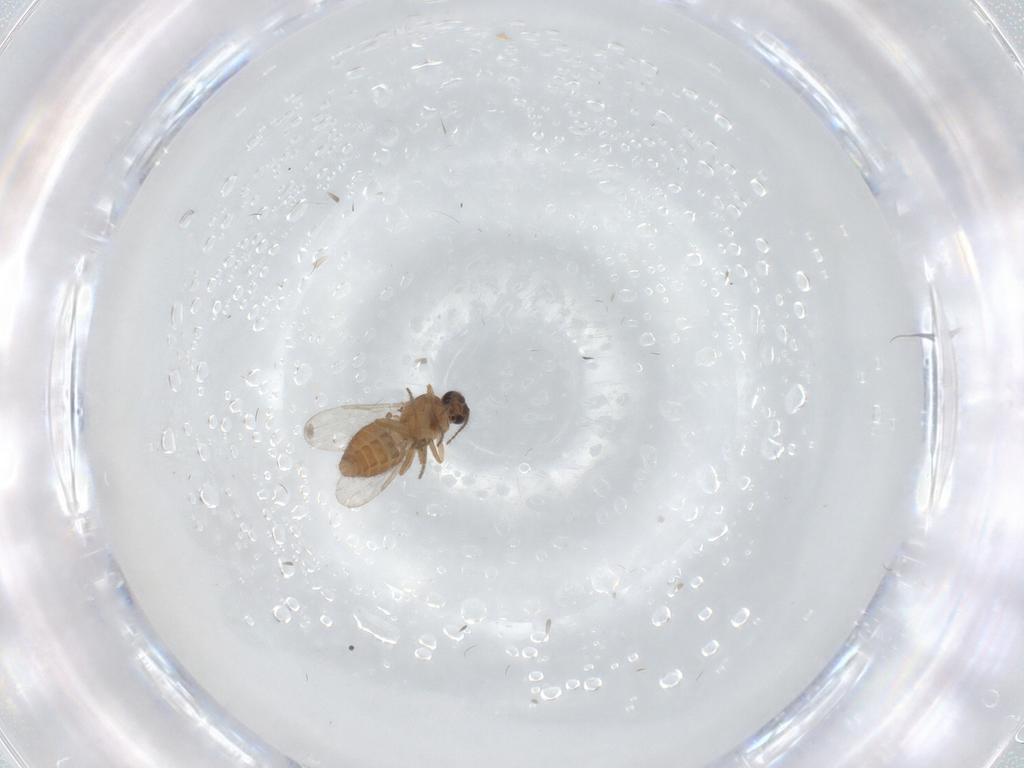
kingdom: Animalia
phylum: Arthropoda
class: Insecta
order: Diptera
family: Ceratopogonidae
